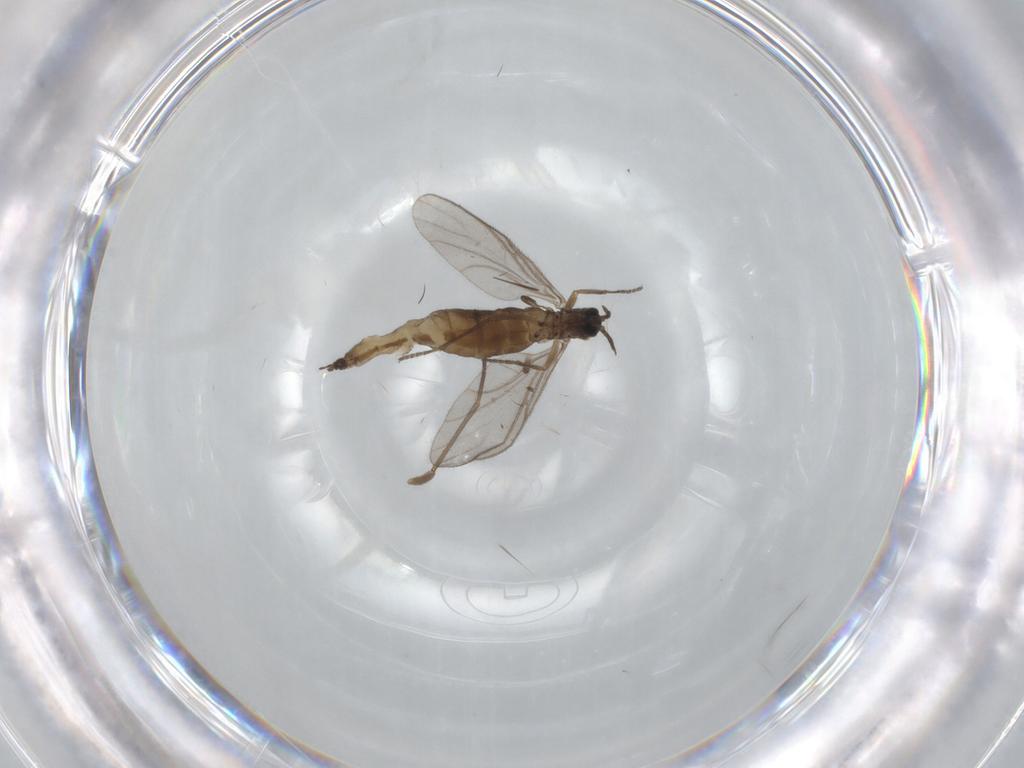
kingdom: Animalia
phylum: Arthropoda
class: Insecta
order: Diptera
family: Sciaridae
